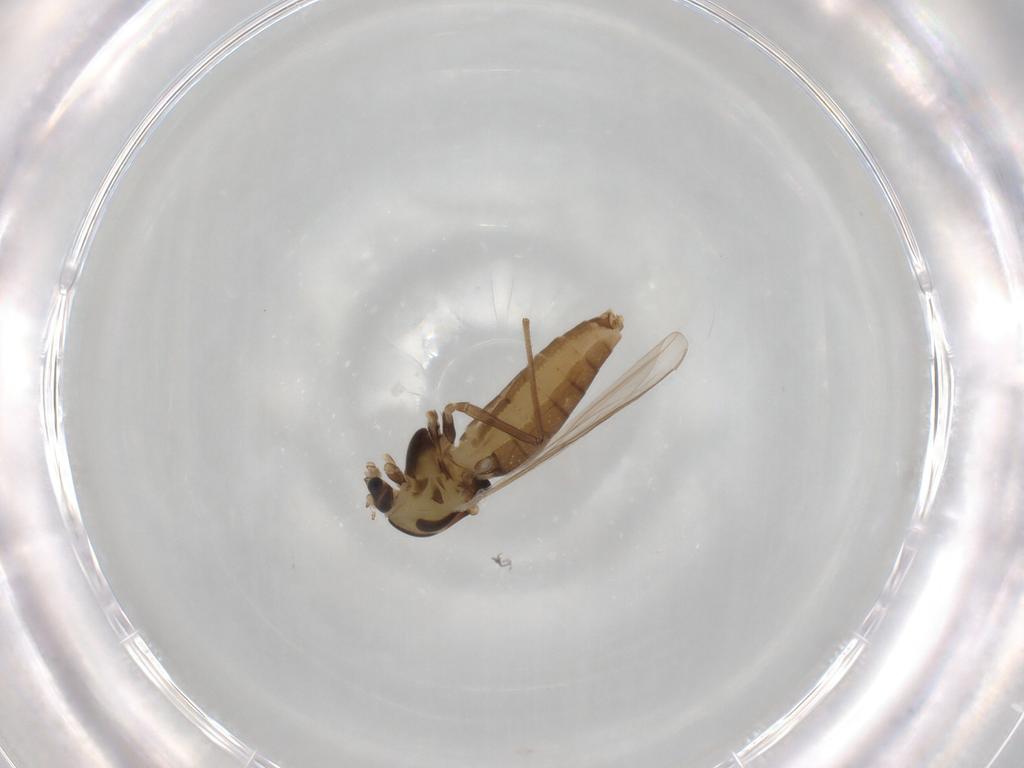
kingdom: Animalia
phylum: Arthropoda
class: Insecta
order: Diptera
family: Chironomidae
